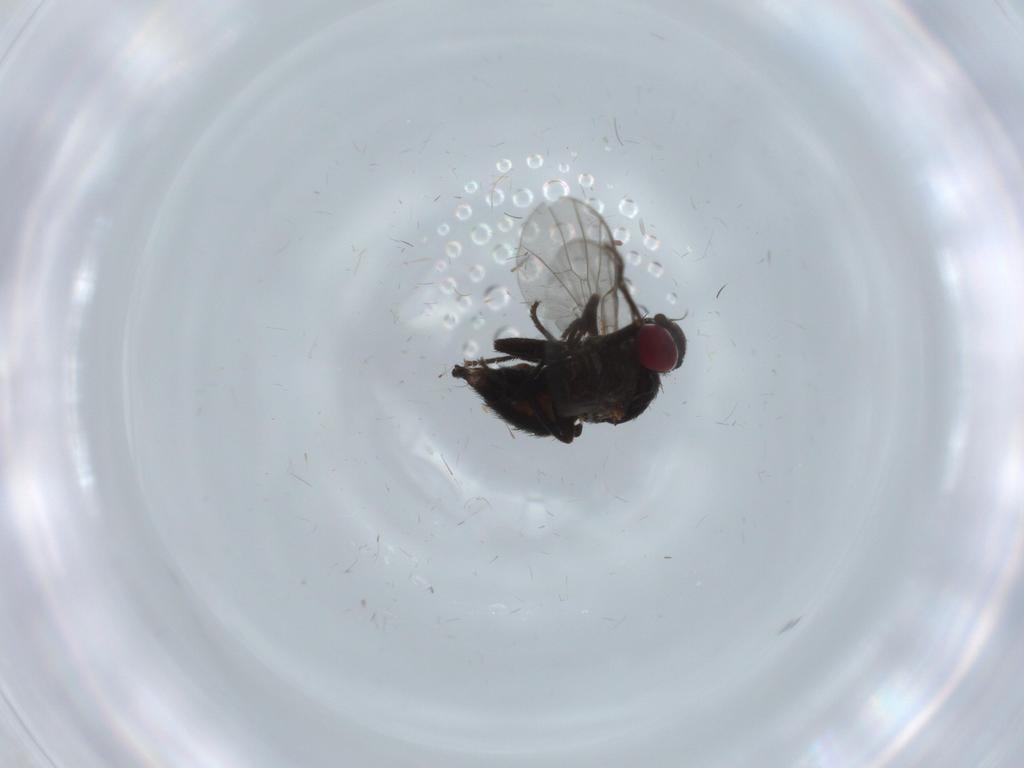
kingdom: Animalia
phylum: Arthropoda
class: Insecta
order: Diptera
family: Agromyzidae
